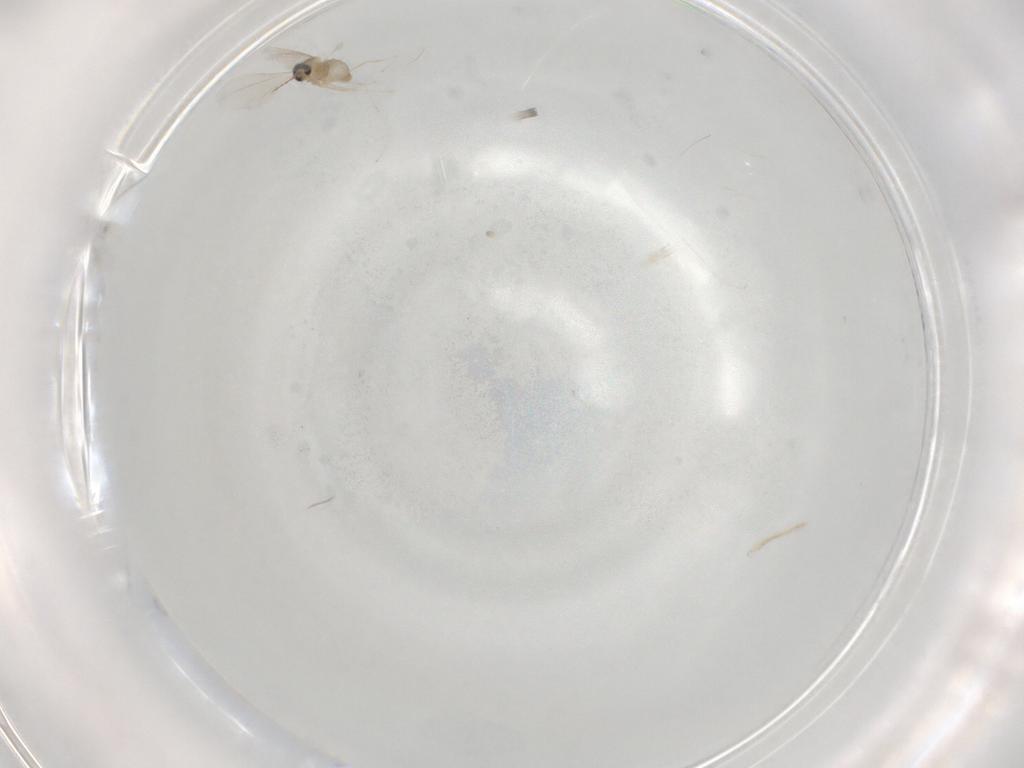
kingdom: Animalia
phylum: Arthropoda
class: Insecta
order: Diptera
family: Cecidomyiidae
